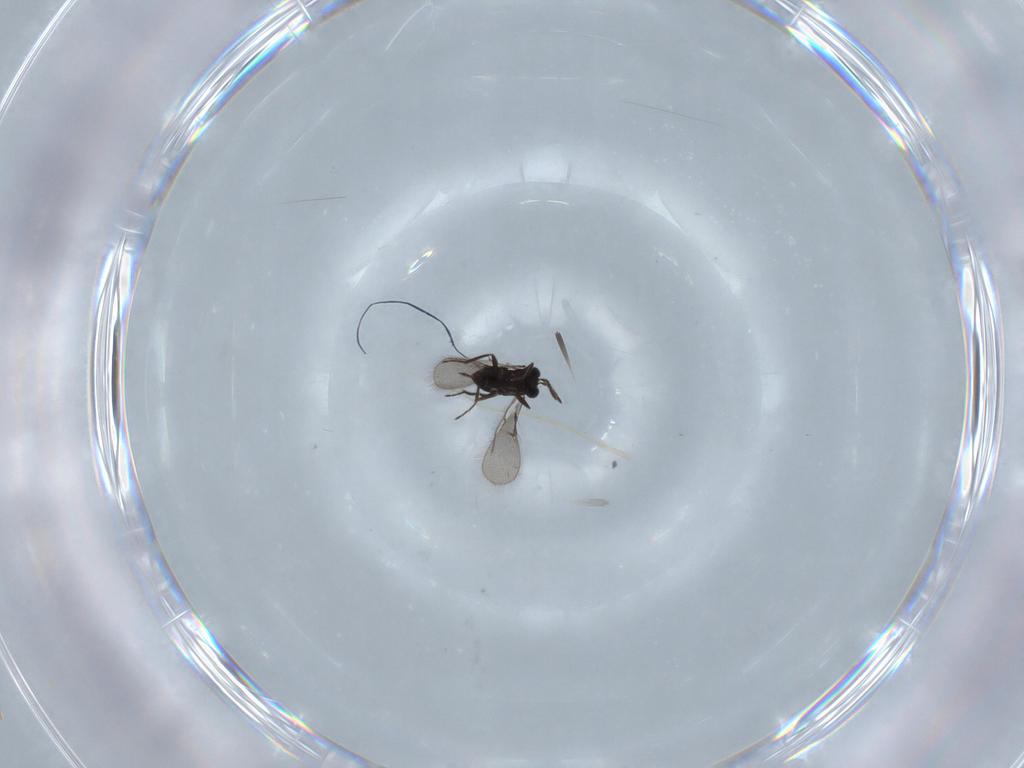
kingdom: Animalia
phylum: Arthropoda
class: Insecta
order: Hymenoptera
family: Trichogrammatidae
